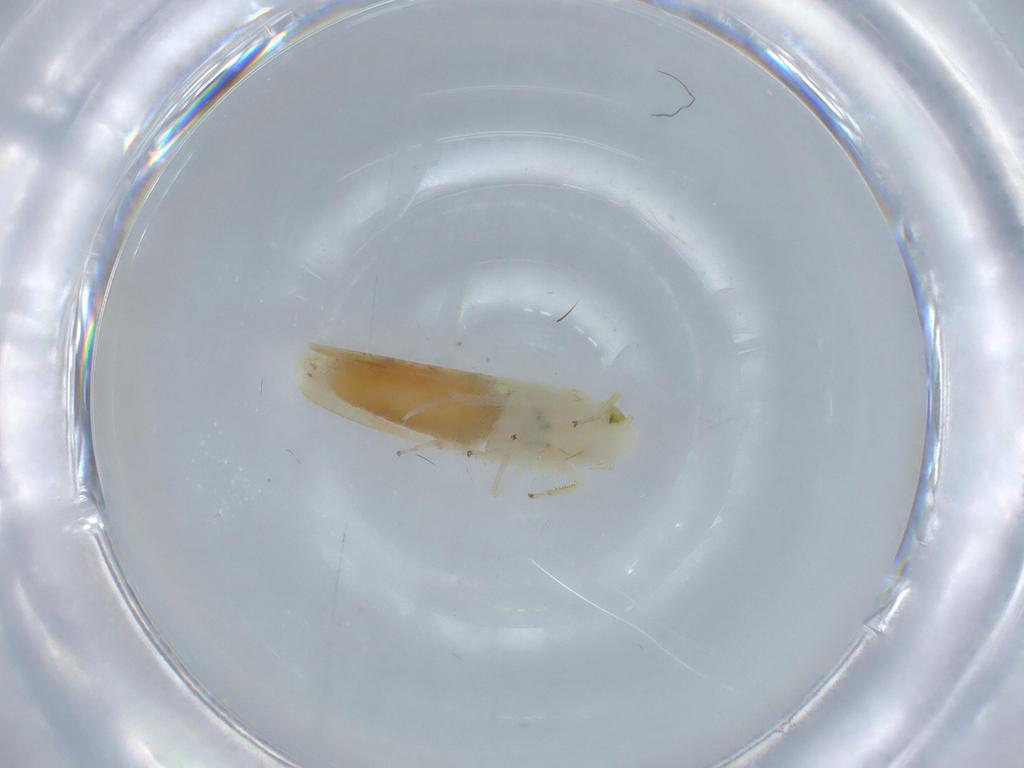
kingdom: Animalia
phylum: Arthropoda
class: Insecta
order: Hemiptera
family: Cicadellidae
